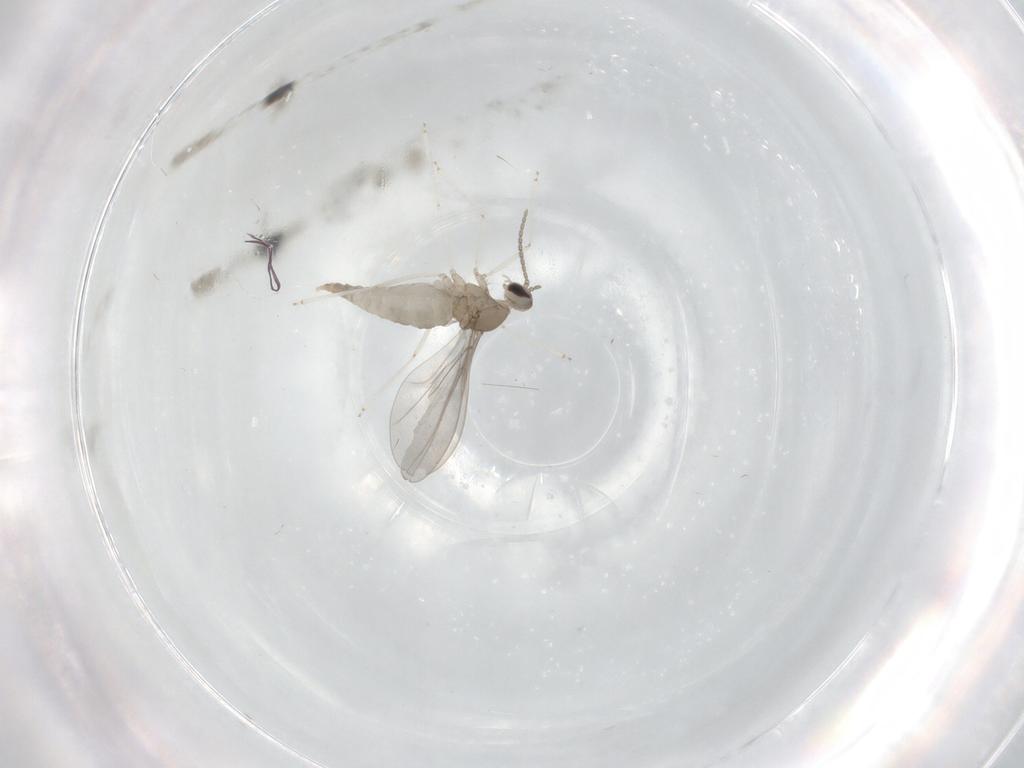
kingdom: Animalia
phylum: Arthropoda
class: Insecta
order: Diptera
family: Cecidomyiidae
